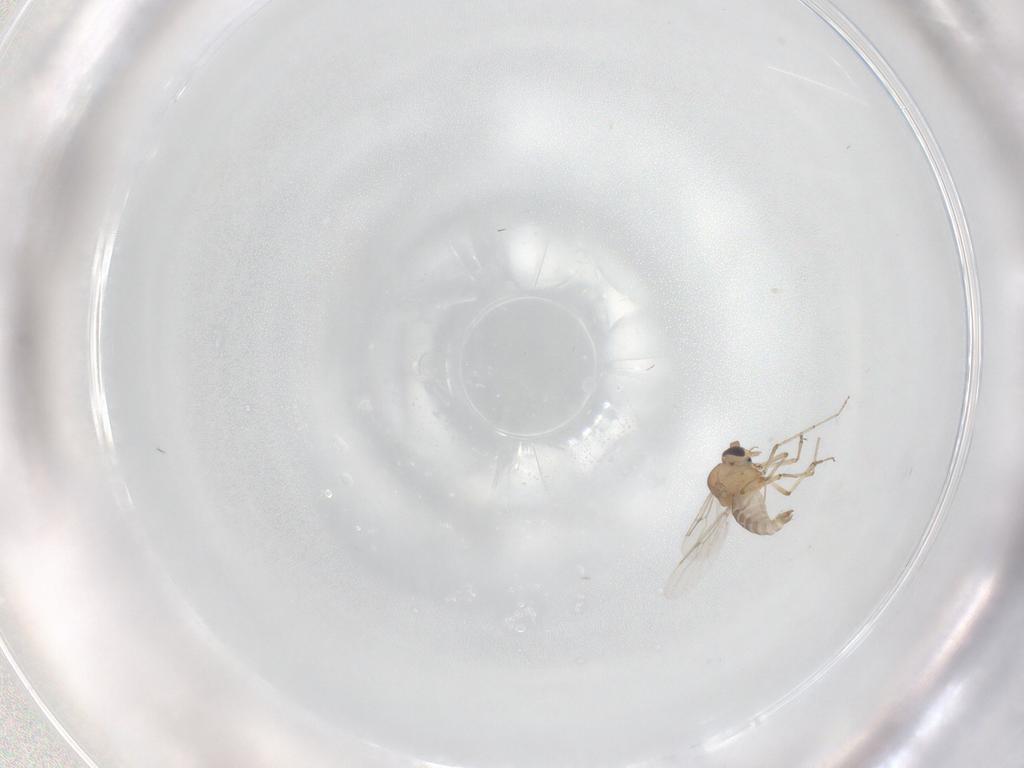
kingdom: Animalia
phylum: Arthropoda
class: Insecta
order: Diptera
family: Ceratopogonidae
